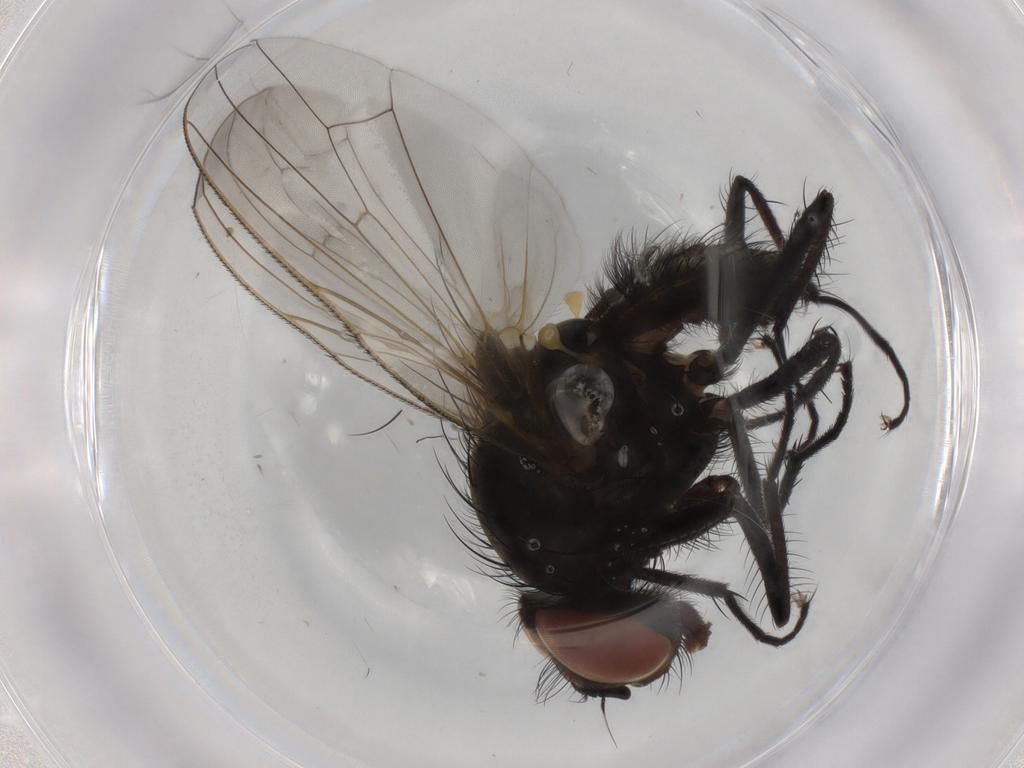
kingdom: Animalia
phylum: Arthropoda
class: Insecta
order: Diptera
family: Anthomyiidae
